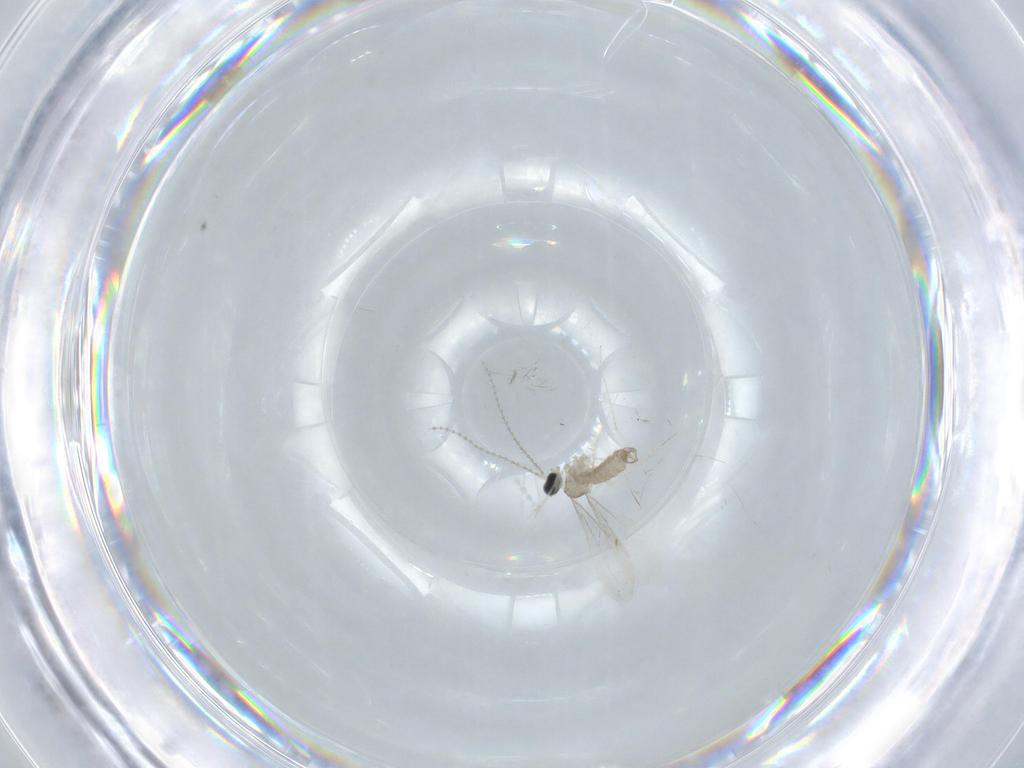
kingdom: Animalia
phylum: Arthropoda
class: Insecta
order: Diptera
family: Cecidomyiidae
